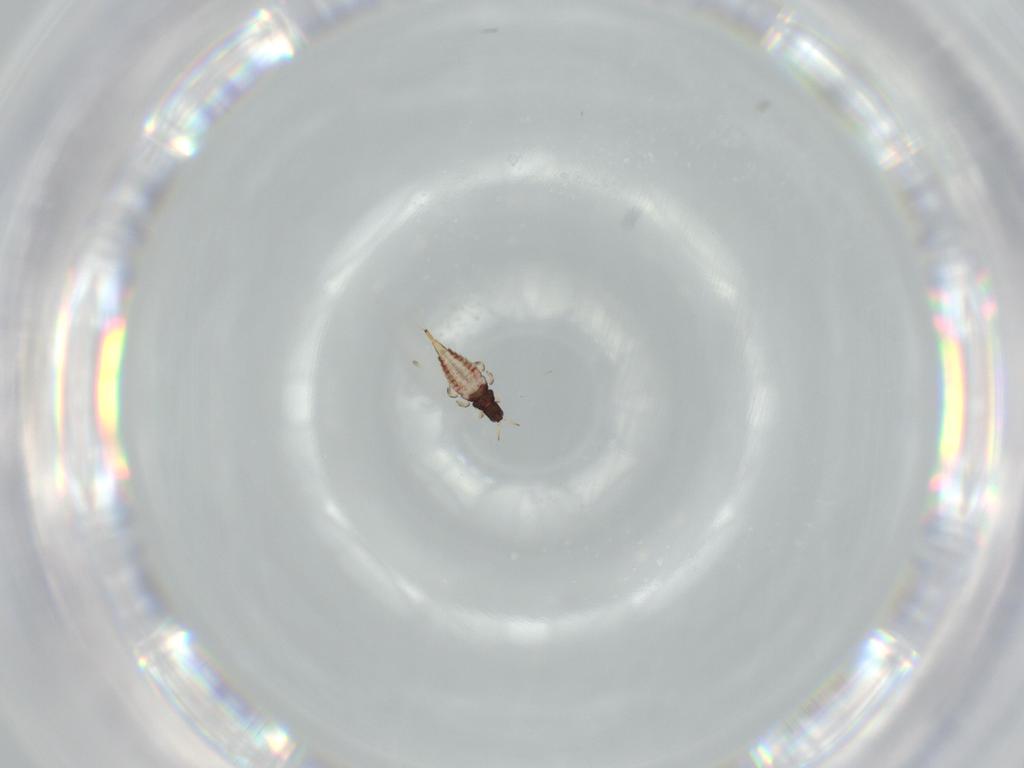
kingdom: Animalia
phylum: Arthropoda
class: Insecta
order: Thysanoptera
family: Phlaeothripidae
